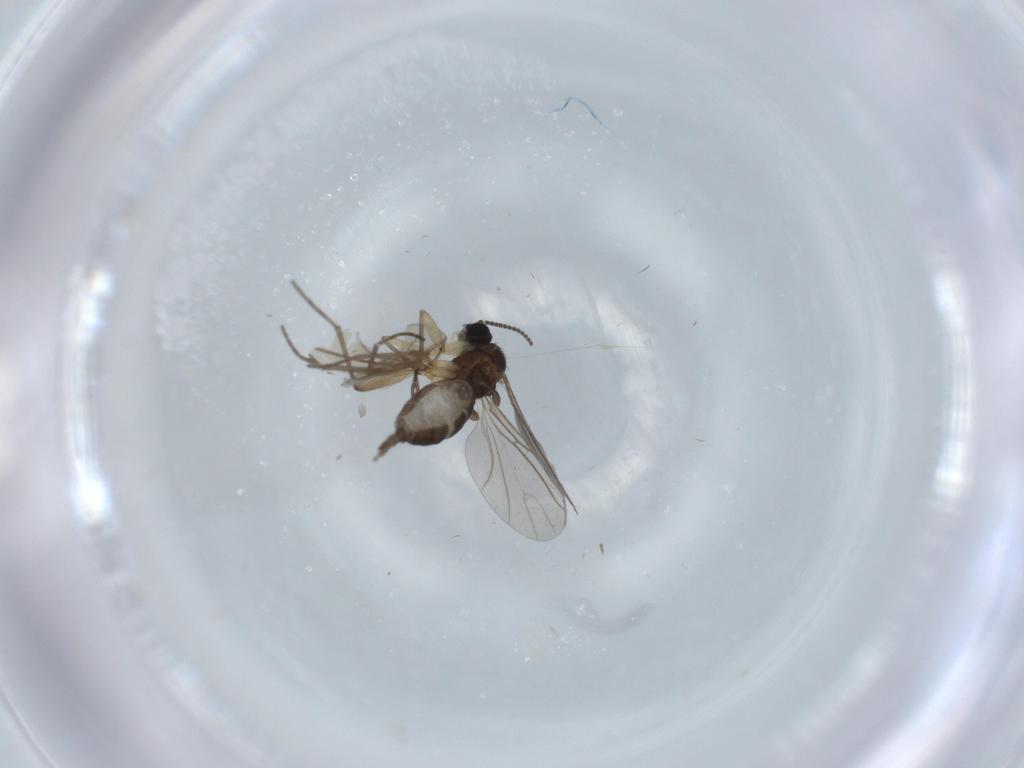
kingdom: Animalia
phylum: Arthropoda
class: Insecta
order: Diptera
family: Sciaridae
